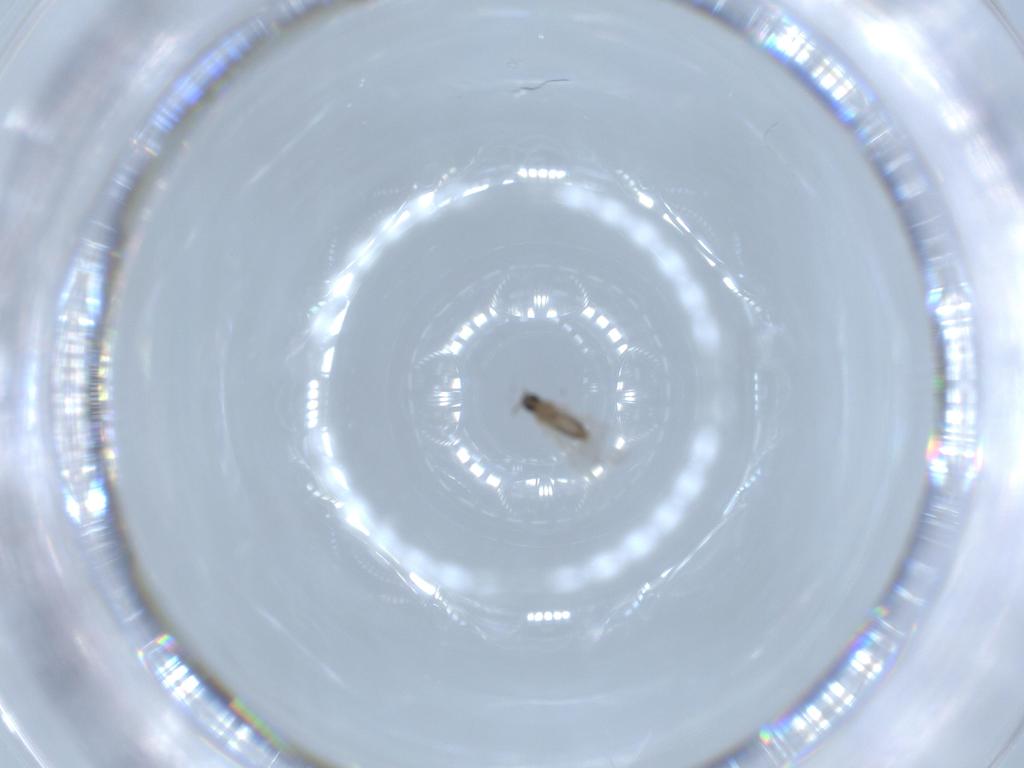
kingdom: Animalia
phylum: Arthropoda
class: Insecta
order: Diptera
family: Cecidomyiidae
